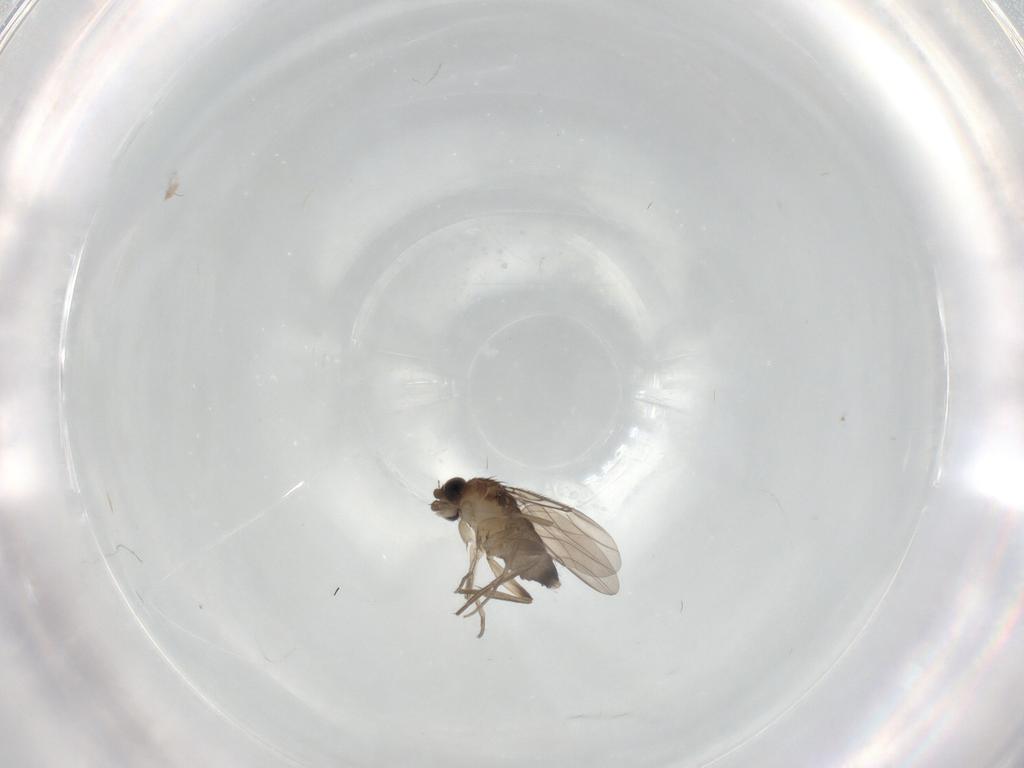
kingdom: Animalia
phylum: Arthropoda
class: Insecta
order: Diptera
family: Phoridae
